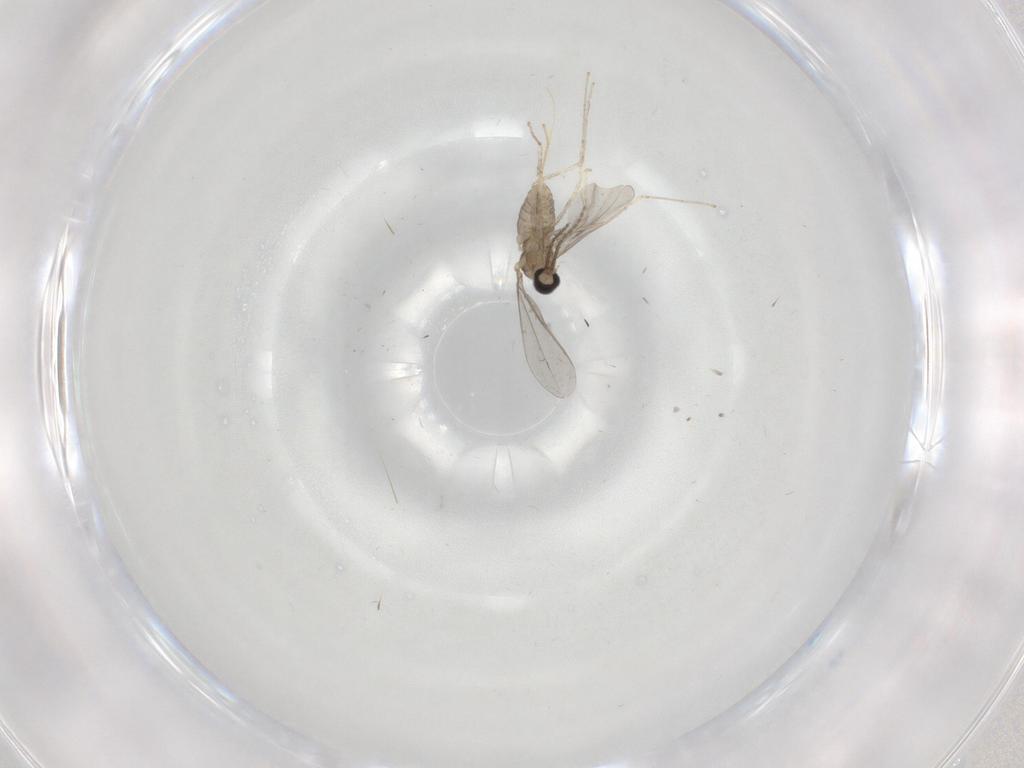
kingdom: Animalia
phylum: Arthropoda
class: Insecta
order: Diptera
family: Cecidomyiidae
